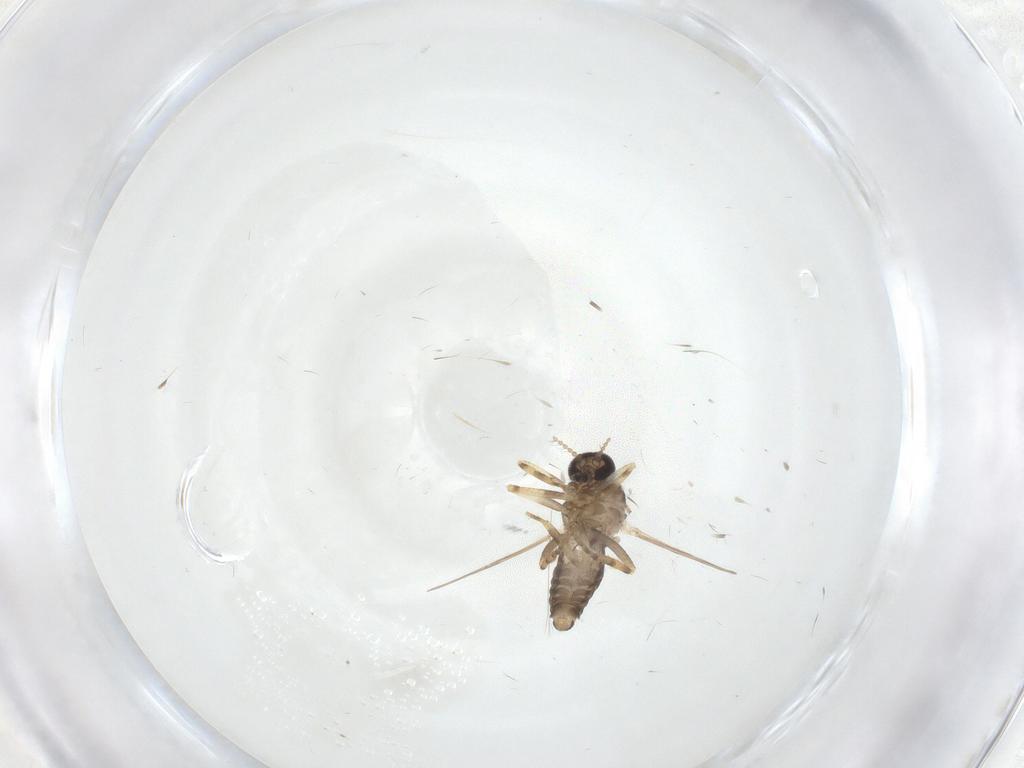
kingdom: Animalia
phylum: Arthropoda
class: Insecta
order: Diptera
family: Ceratopogonidae
